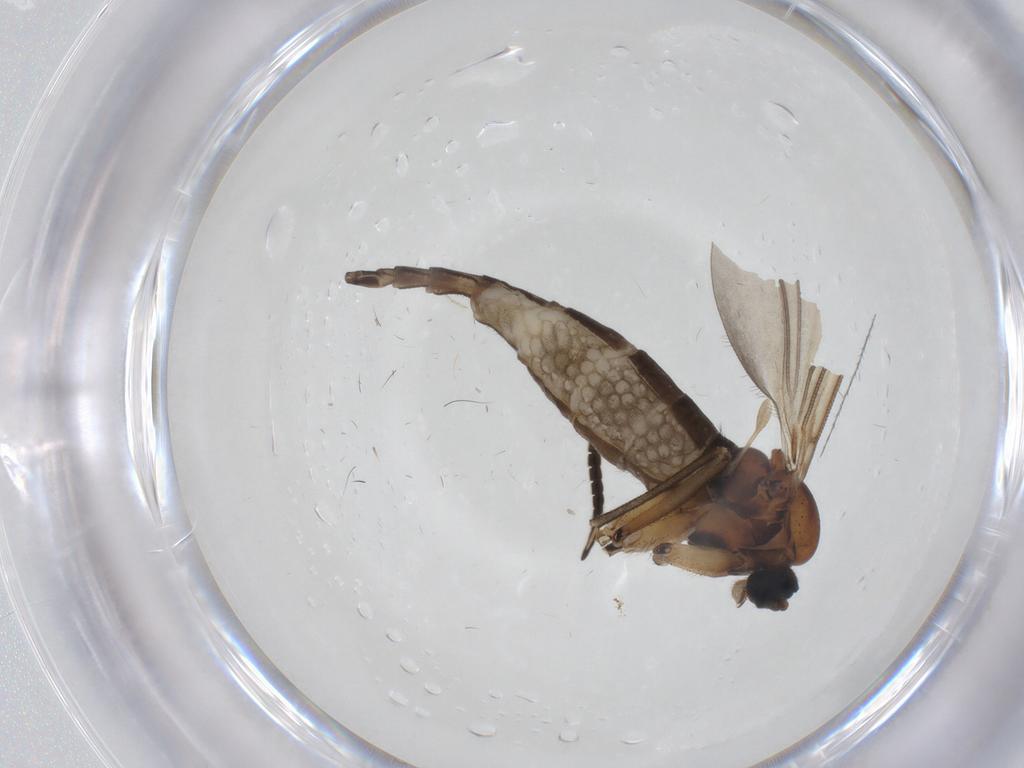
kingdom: Animalia
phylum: Arthropoda
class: Insecta
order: Diptera
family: Sciaridae
